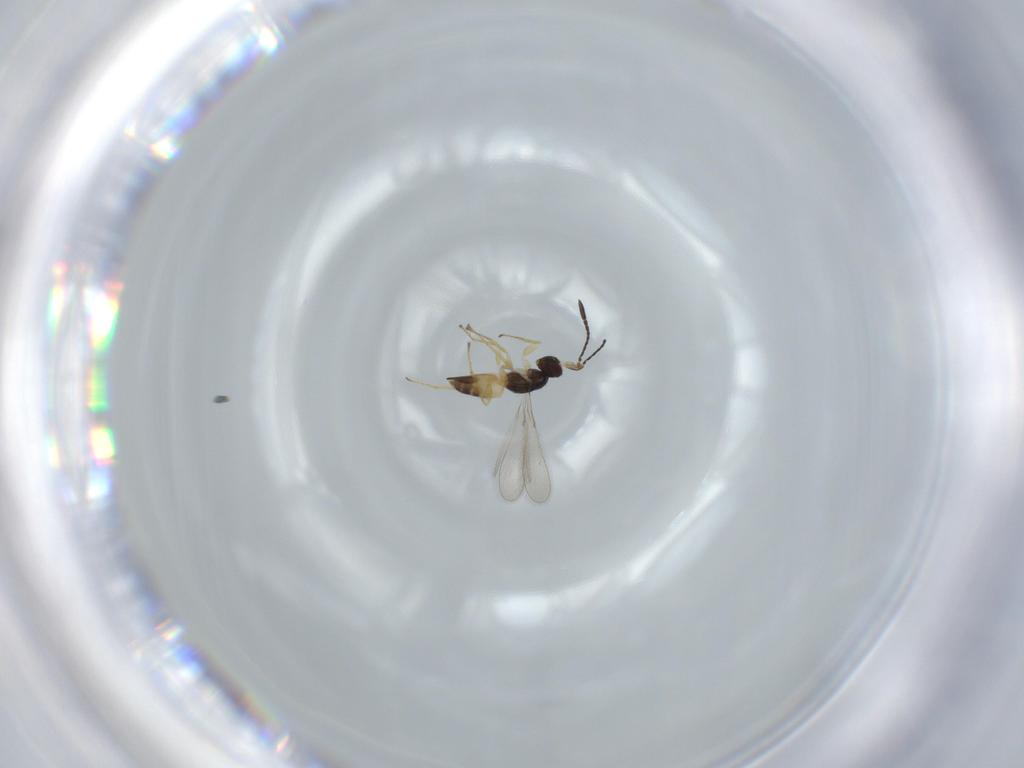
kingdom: Animalia
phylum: Arthropoda
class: Insecta
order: Hymenoptera
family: Mymaridae
